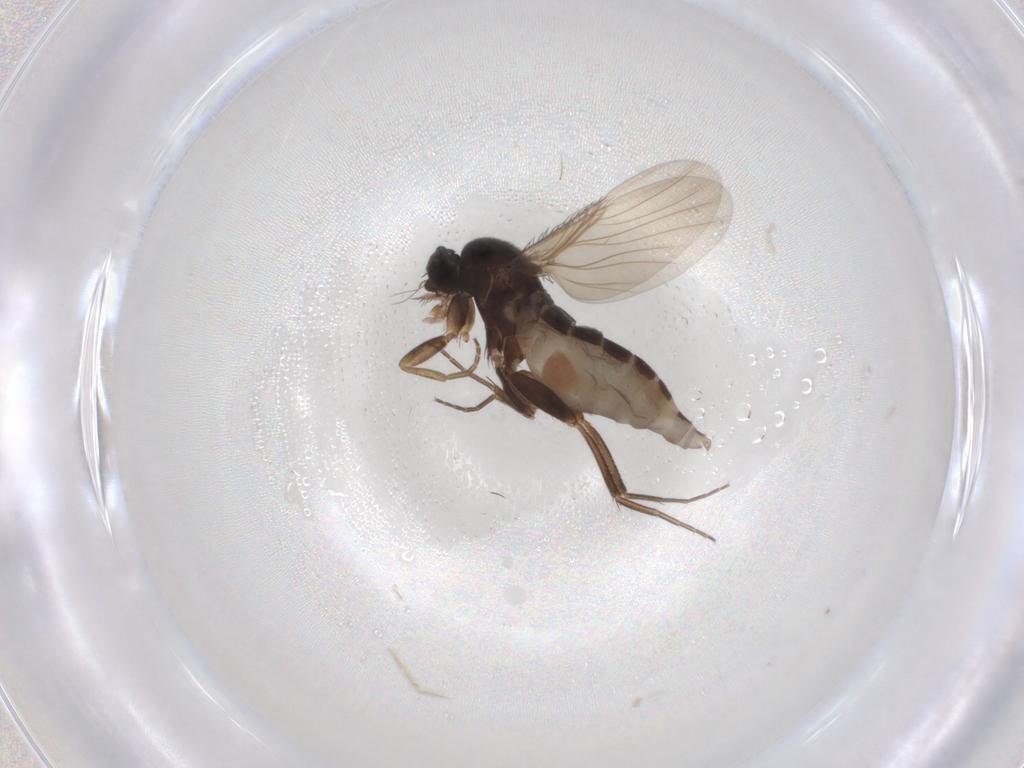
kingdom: Animalia
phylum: Arthropoda
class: Insecta
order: Diptera
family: Phoridae
